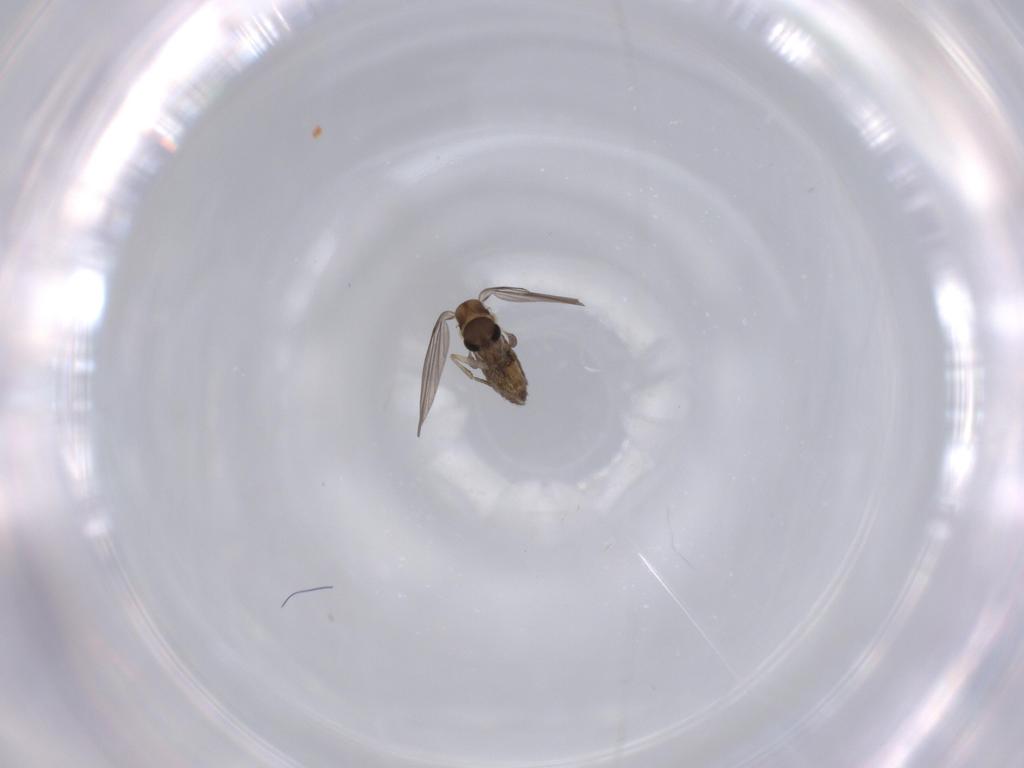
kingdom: Animalia
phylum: Arthropoda
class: Insecta
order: Diptera
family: Psychodidae
